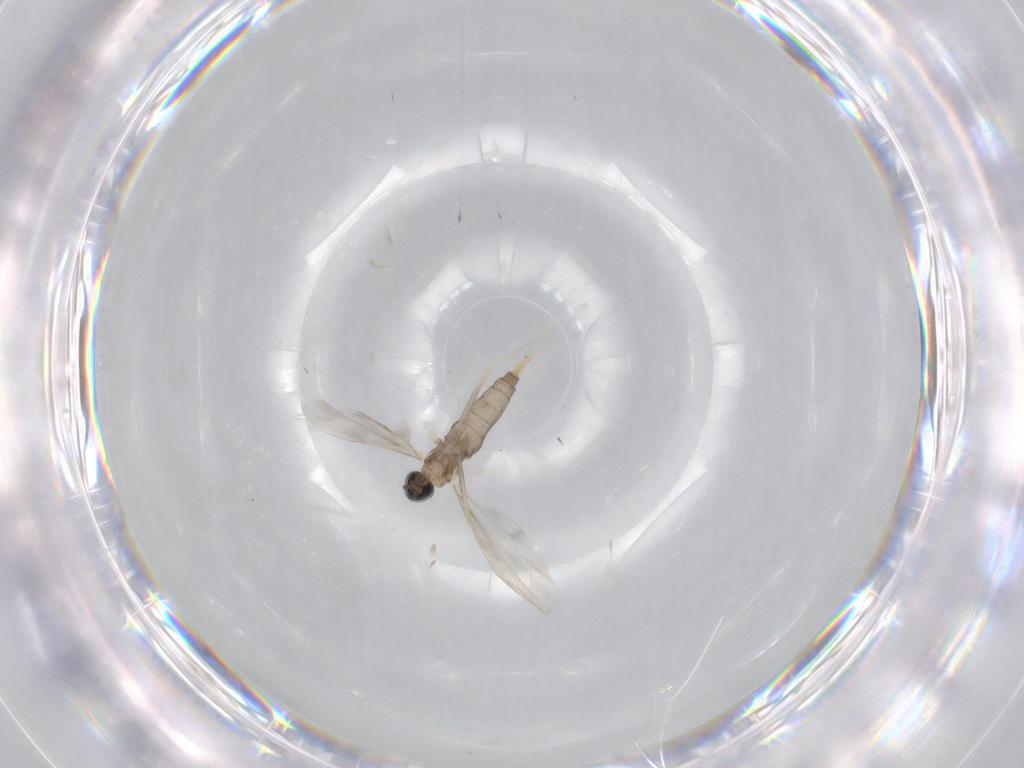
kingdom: Animalia
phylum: Arthropoda
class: Insecta
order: Diptera
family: Cecidomyiidae
